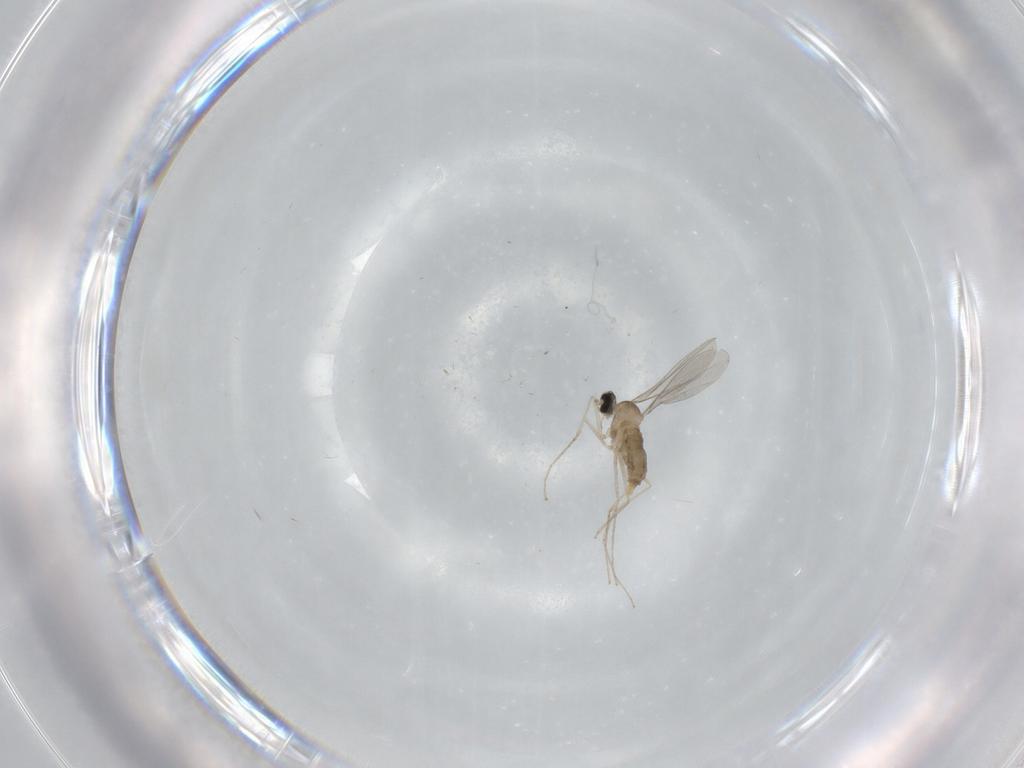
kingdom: Animalia
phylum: Arthropoda
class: Insecta
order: Diptera
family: Cecidomyiidae
